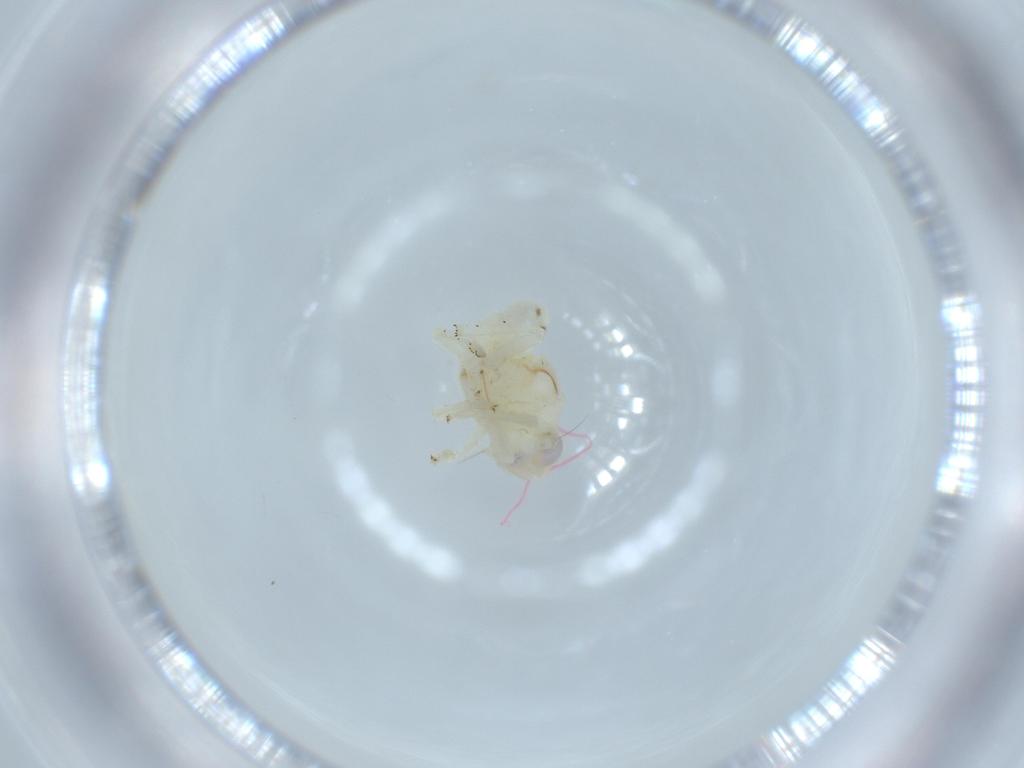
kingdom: Animalia
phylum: Arthropoda
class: Insecta
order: Hemiptera
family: Nogodinidae
